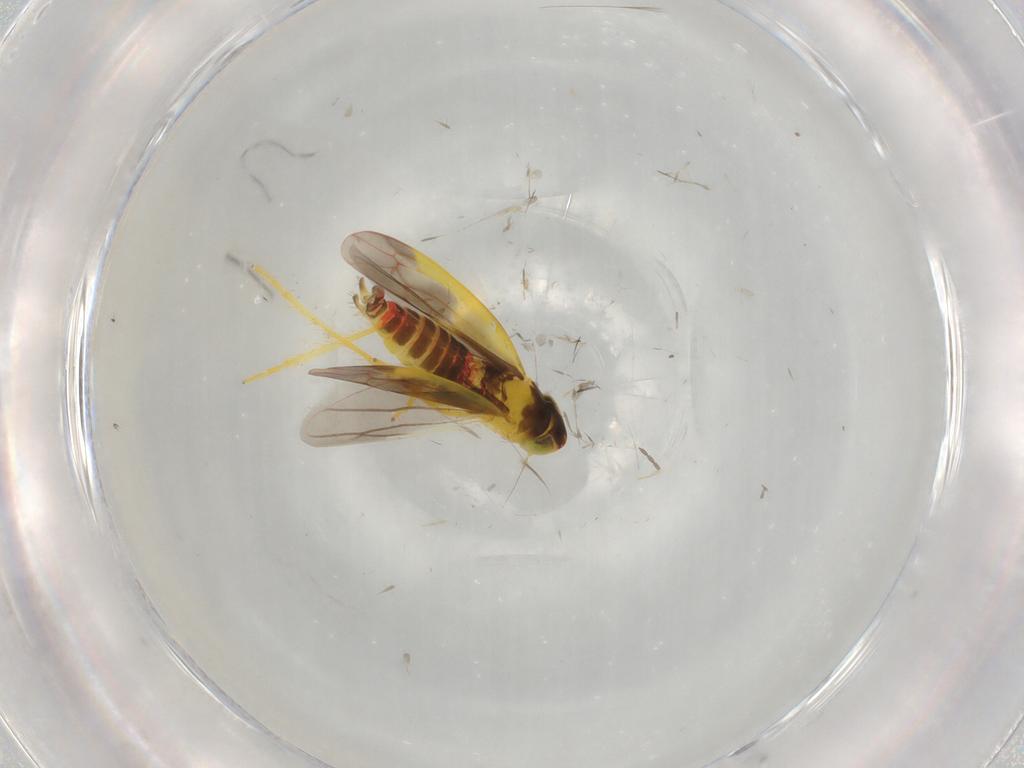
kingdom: Animalia
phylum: Arthropoda
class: Insecta
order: Hemiptera
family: Cicadellidae
